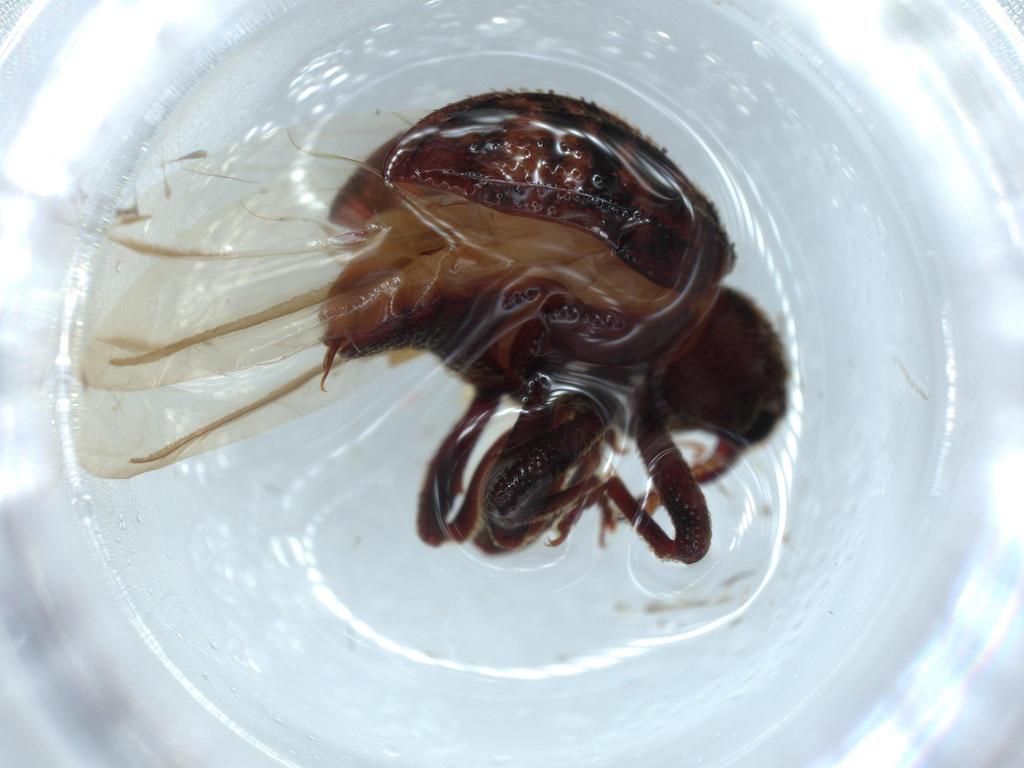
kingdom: Animalia
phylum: Arthropoda
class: Insecta
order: Coleoptera
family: Curculionidae
